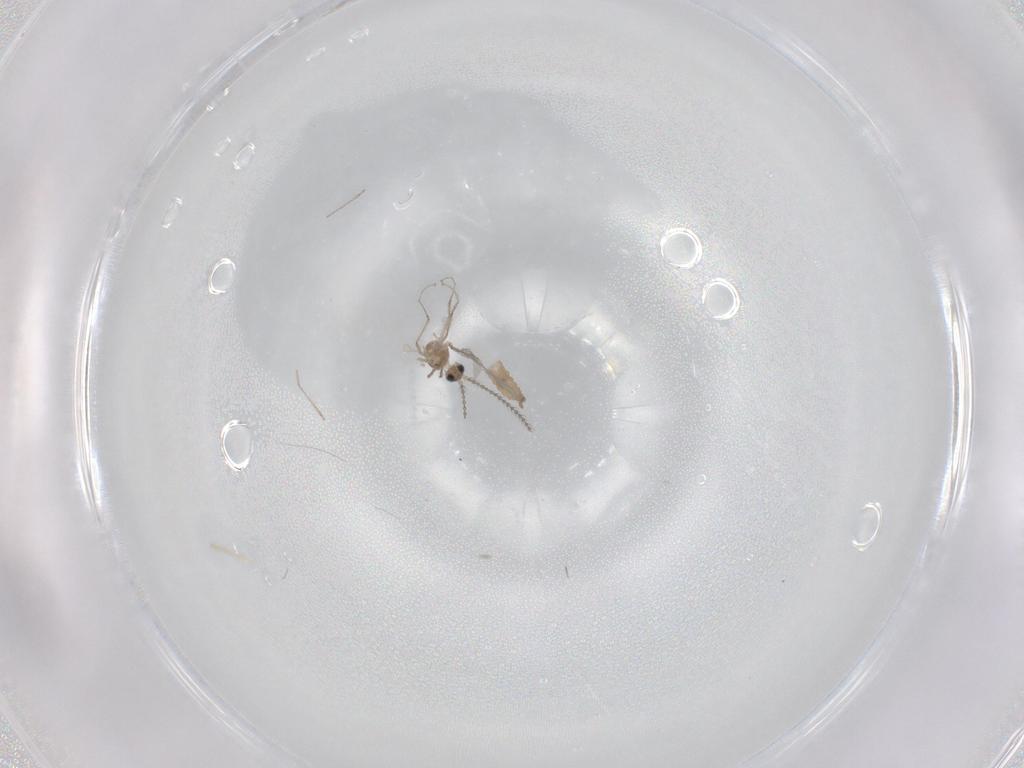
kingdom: Animalia
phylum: Arthropoda
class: Insecta
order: Diptera
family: Cecidomyiidae
